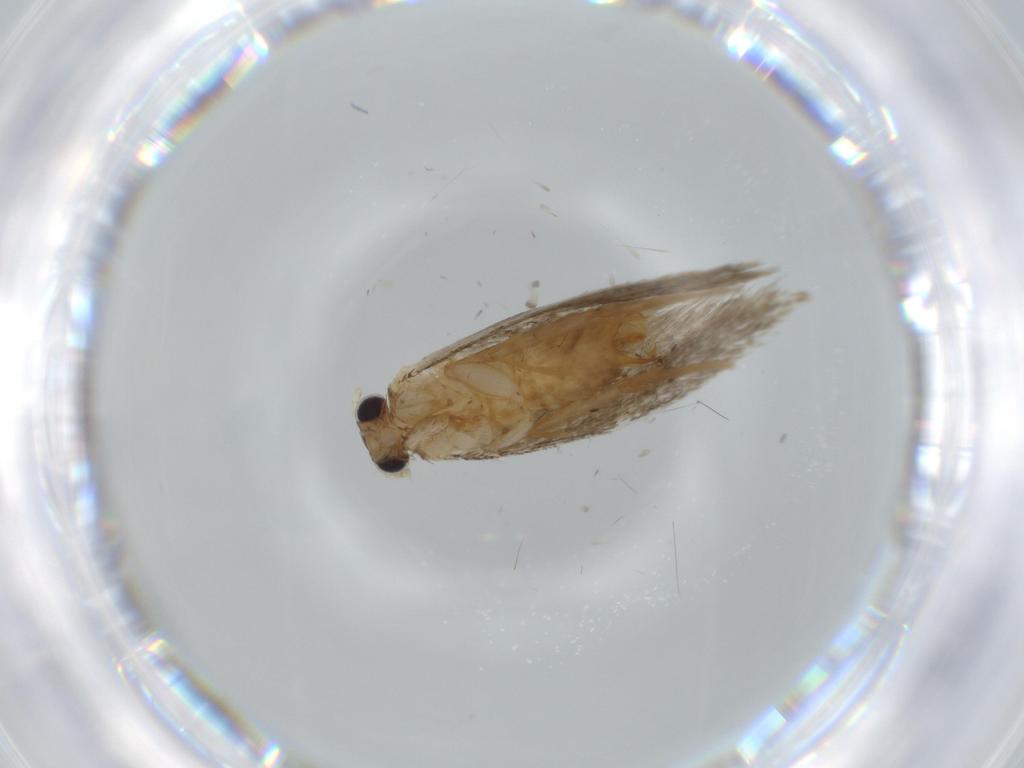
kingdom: Animalia
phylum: Arthropoda
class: Insecta
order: Lepidoptera
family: Tineidae
